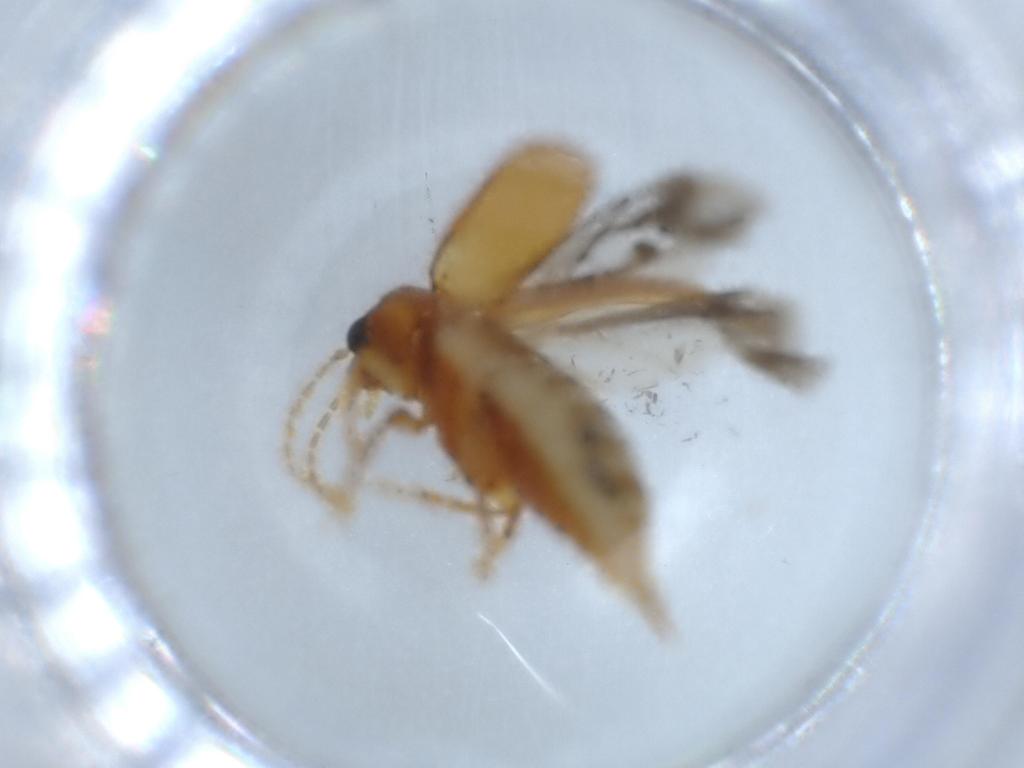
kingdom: Animalia
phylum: Arthropoda
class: Insecta
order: Coleoptera
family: Ptilodactylidae
